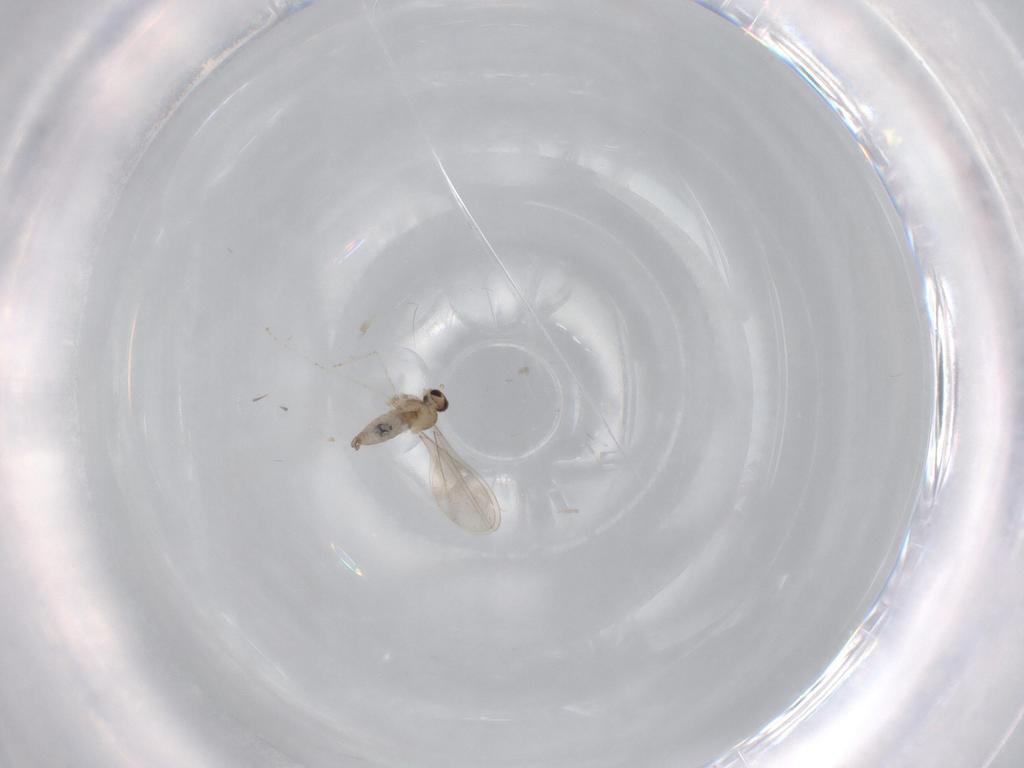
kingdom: Animalia
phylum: Arthropoda
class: Insecta
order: Diptera
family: Cecidomyiidae
